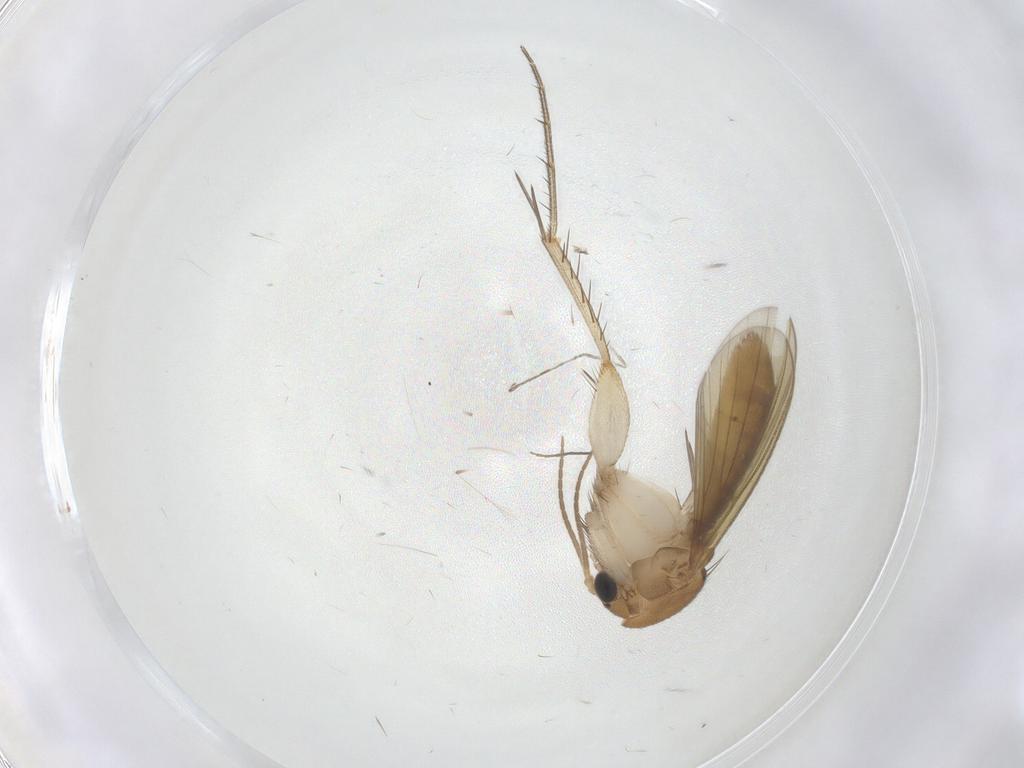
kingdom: Animalia
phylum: Arthropoda
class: Insecta
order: Diptera
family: Mycetophilidae
